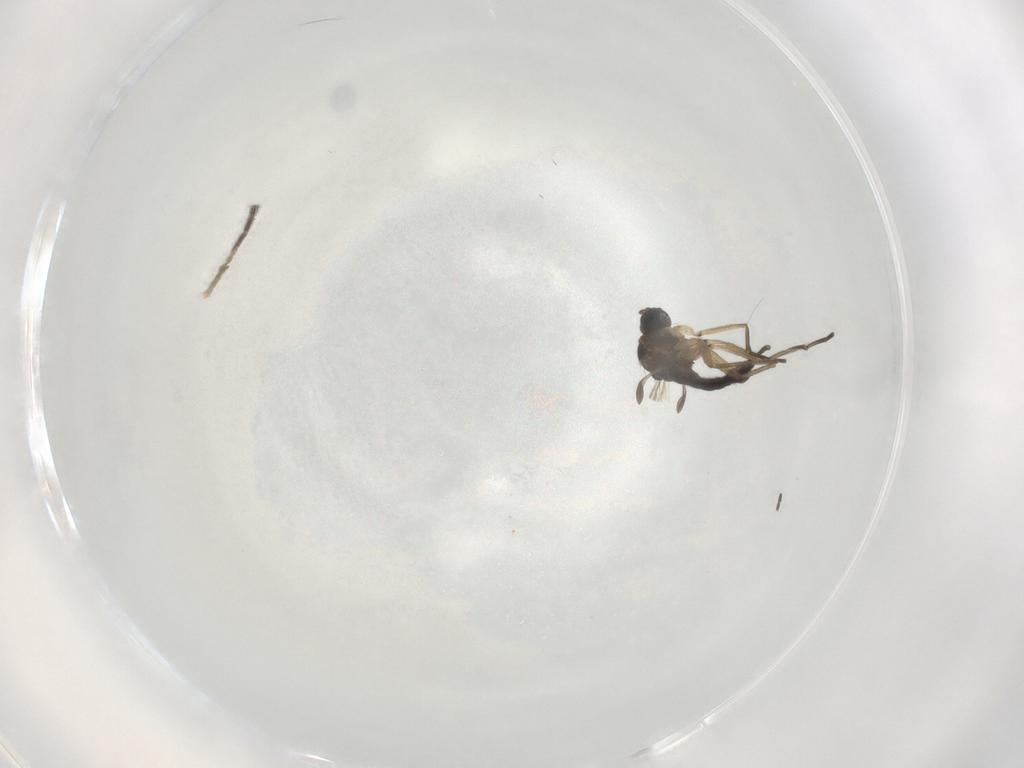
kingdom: Animalia
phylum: Arthropoda
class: Insecta
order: Diptera
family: Sciaridae
